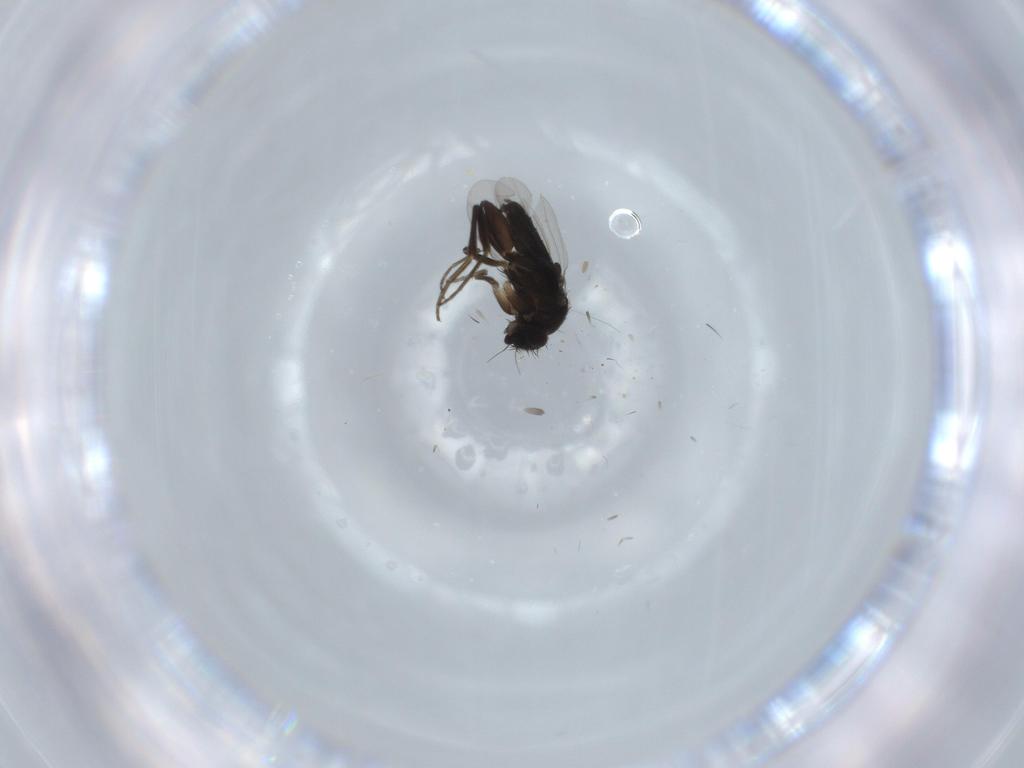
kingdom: Animalia
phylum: Arthropoda
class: Insecta
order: Diptera
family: Phoridae
